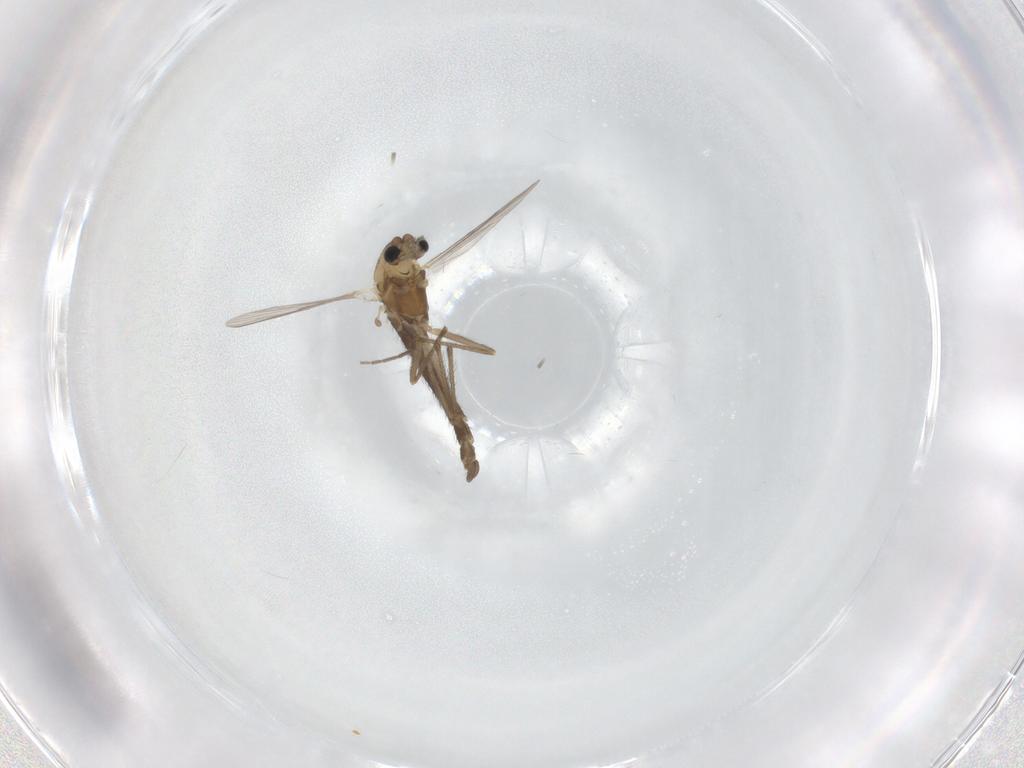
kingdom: Animalia
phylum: Arthropoda
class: Insecta
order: Diptera
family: Chironomidae
